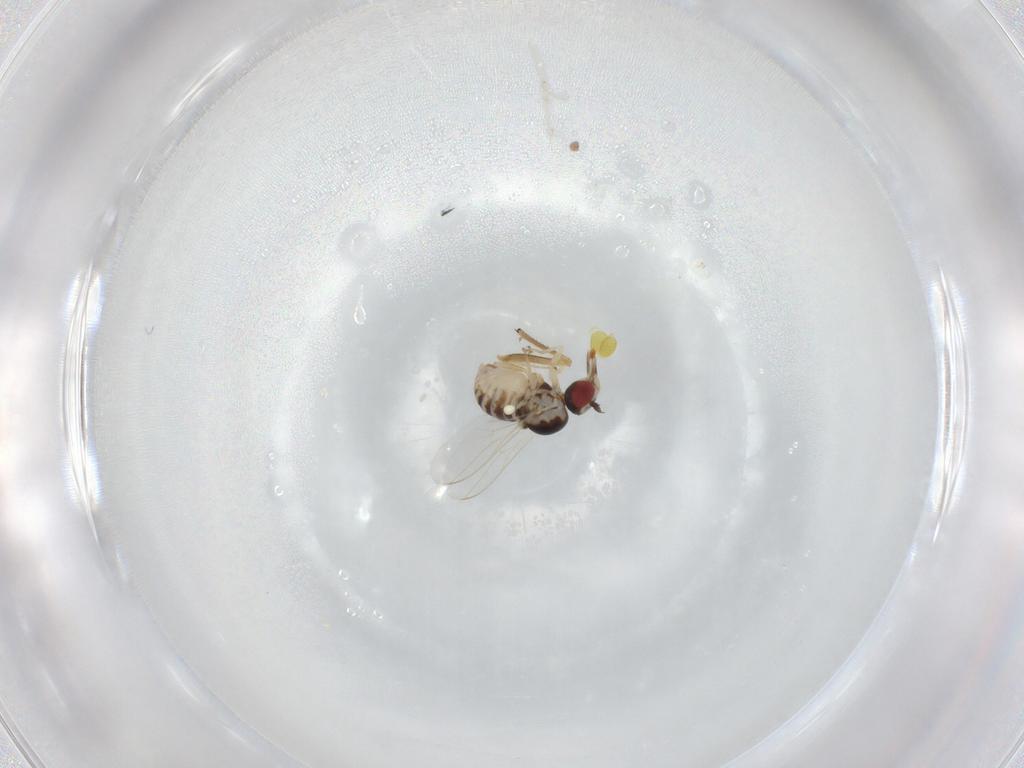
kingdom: Animalia
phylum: Arthropoda
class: Insecta
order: Diptera
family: Bombyliidae
